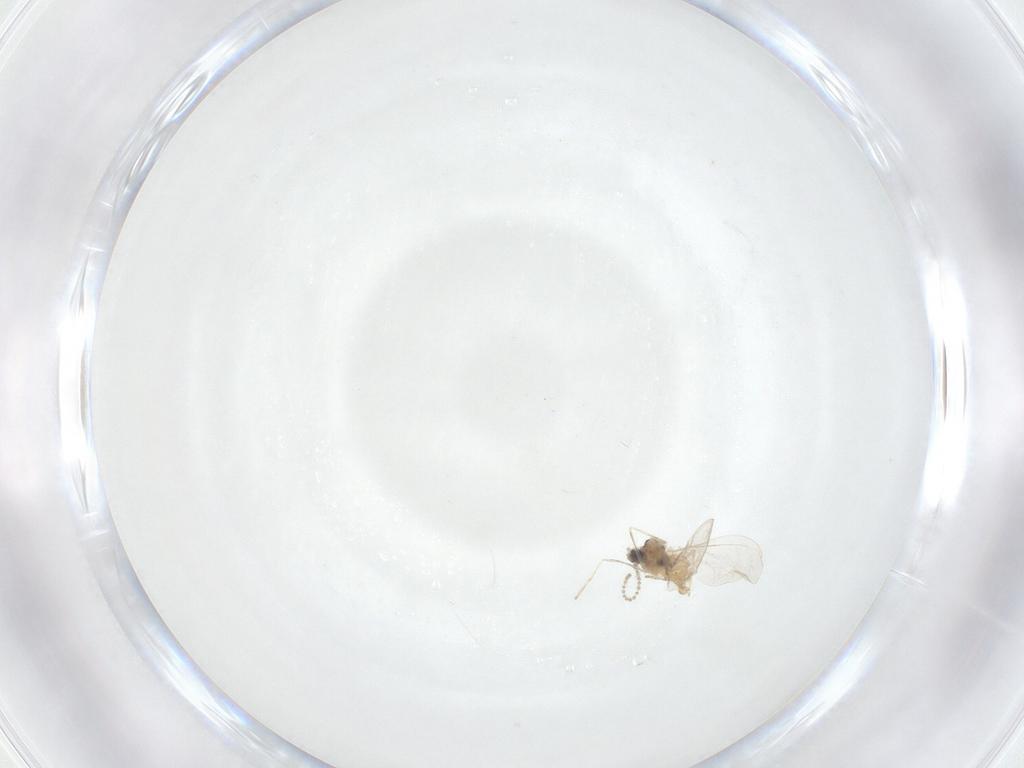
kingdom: Animalia
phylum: Arthropoda
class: Insecta
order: Diptera
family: Cecidomyiidae
